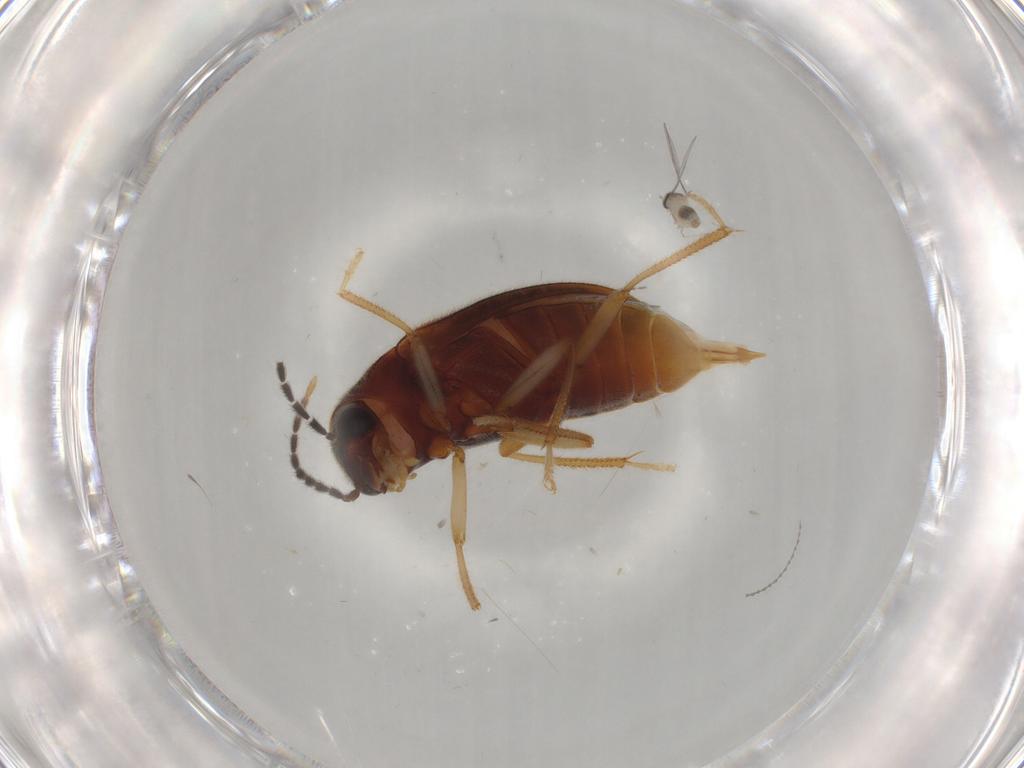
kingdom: Animalia
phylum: Arthropoda
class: Insecta
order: Diptera
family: Cecidomyiidae
